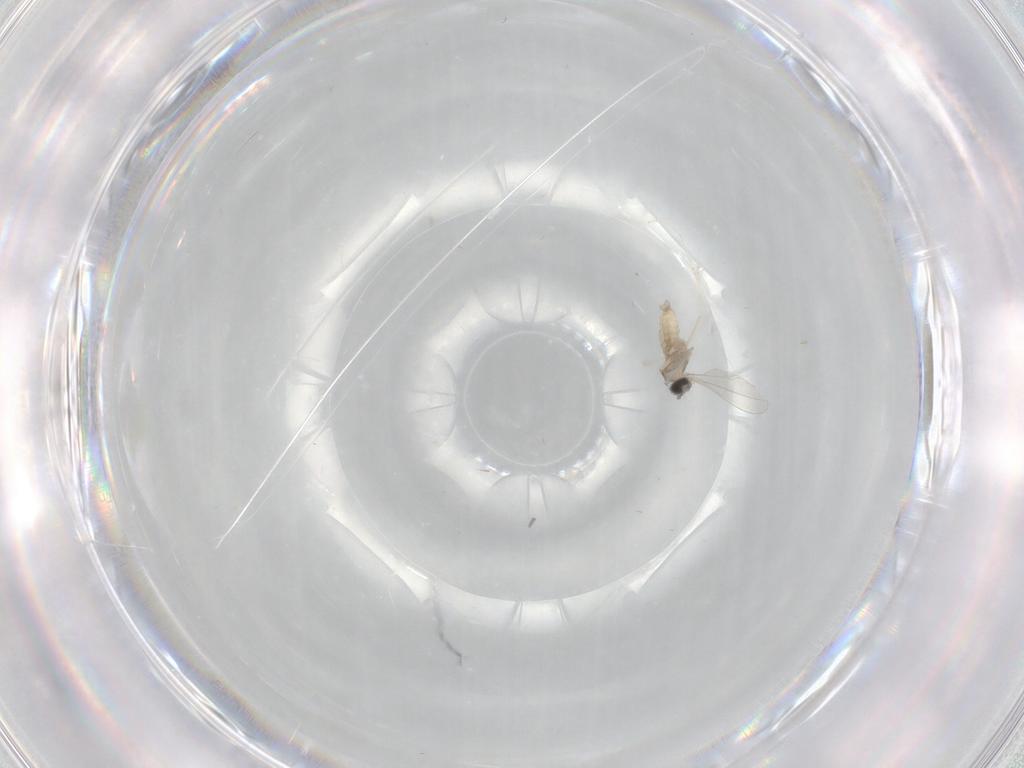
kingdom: Animalia
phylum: Arthropoda
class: Insecta
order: Diptera
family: Cecidomyiidae
